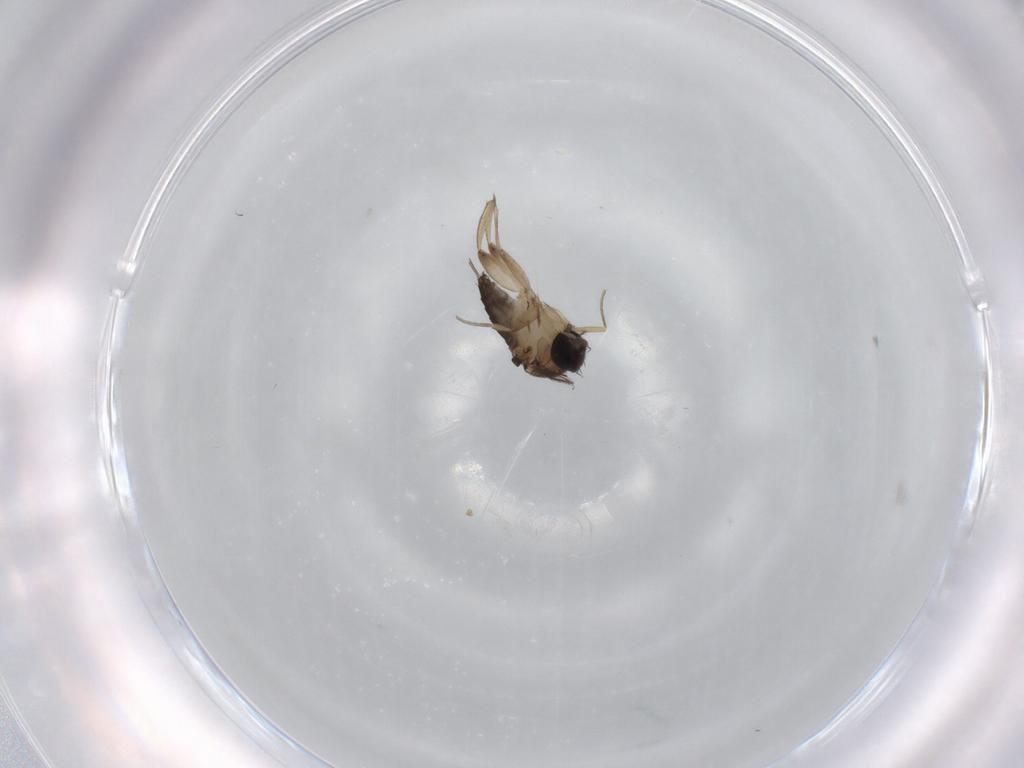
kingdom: Animalia
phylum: Arthropoda
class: Insecta
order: Diptera
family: Phoridae
